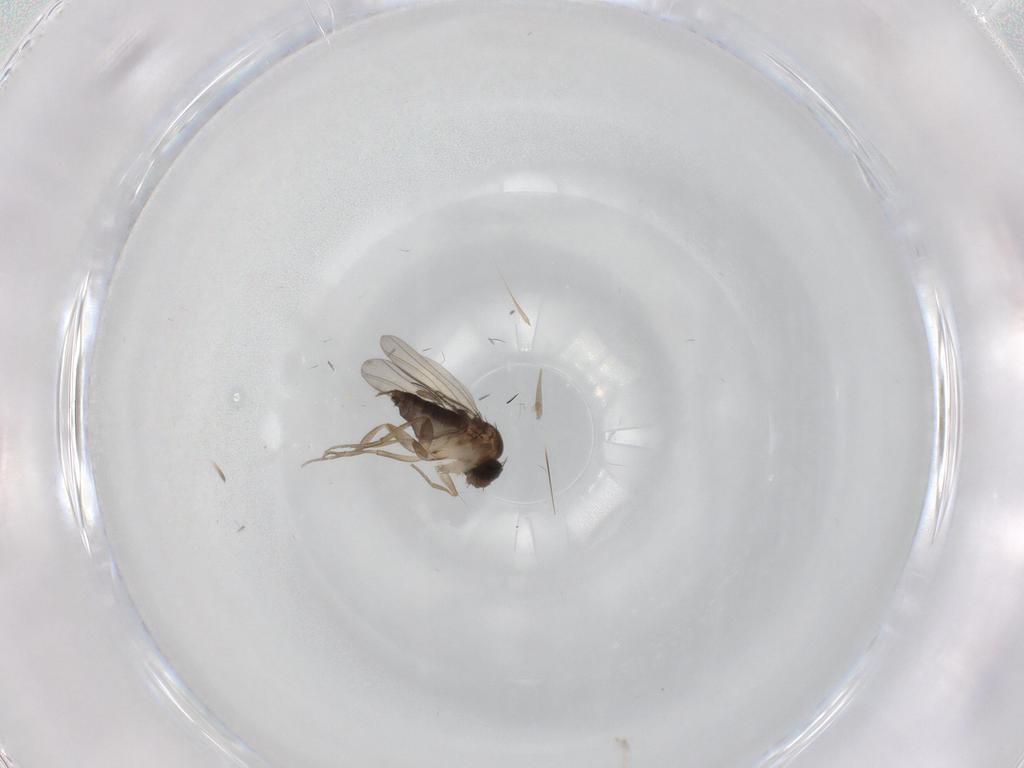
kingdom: Animalia
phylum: Arthropoda
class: Insecta
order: Diptera
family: Phoridae
